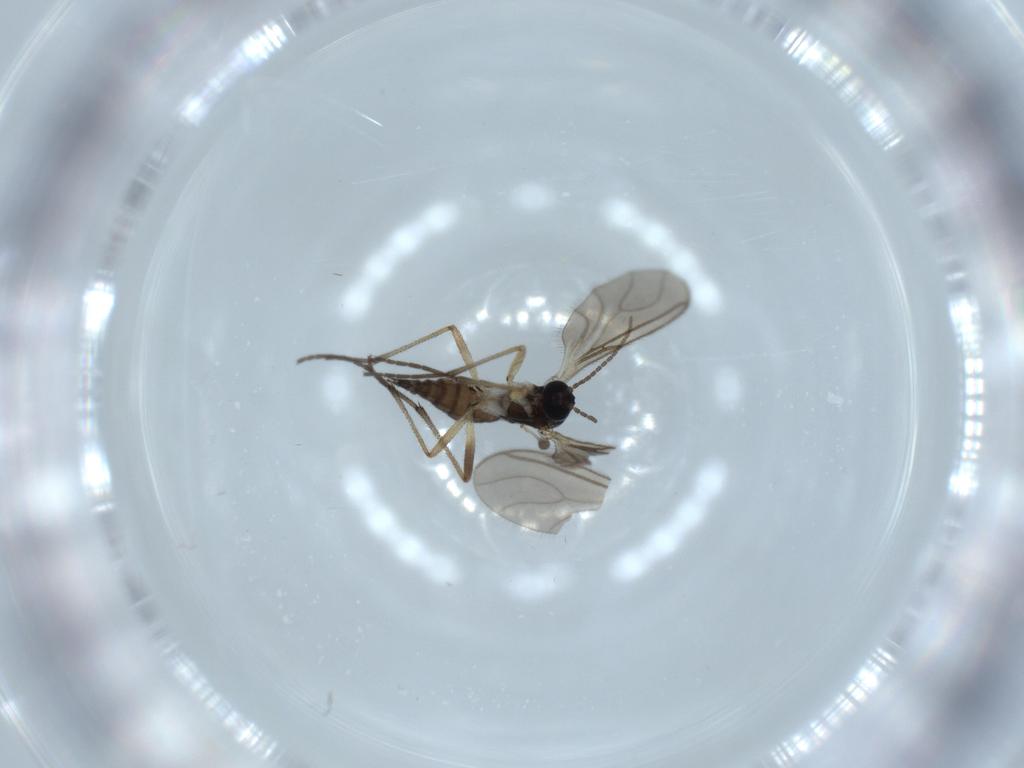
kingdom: Animalia
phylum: Arthropoda
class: Insecta
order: Diptera
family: Sciaridae
